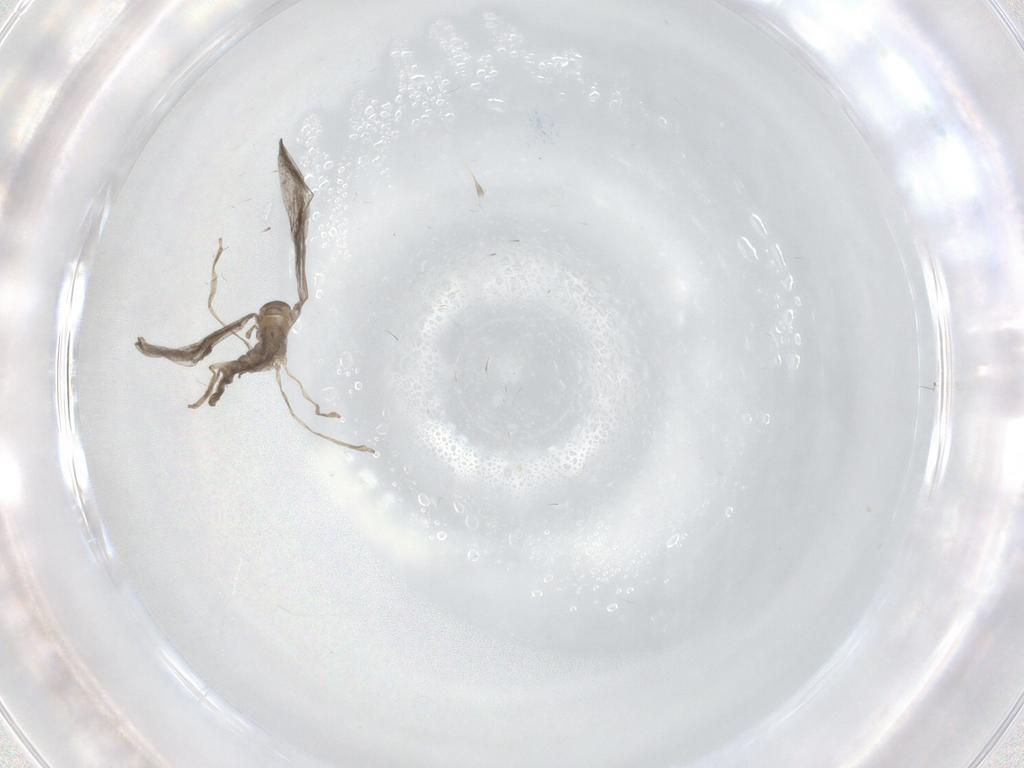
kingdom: Animalia
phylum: Arthropoda
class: Insecta
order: Diptera
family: Cecidomyiidae
